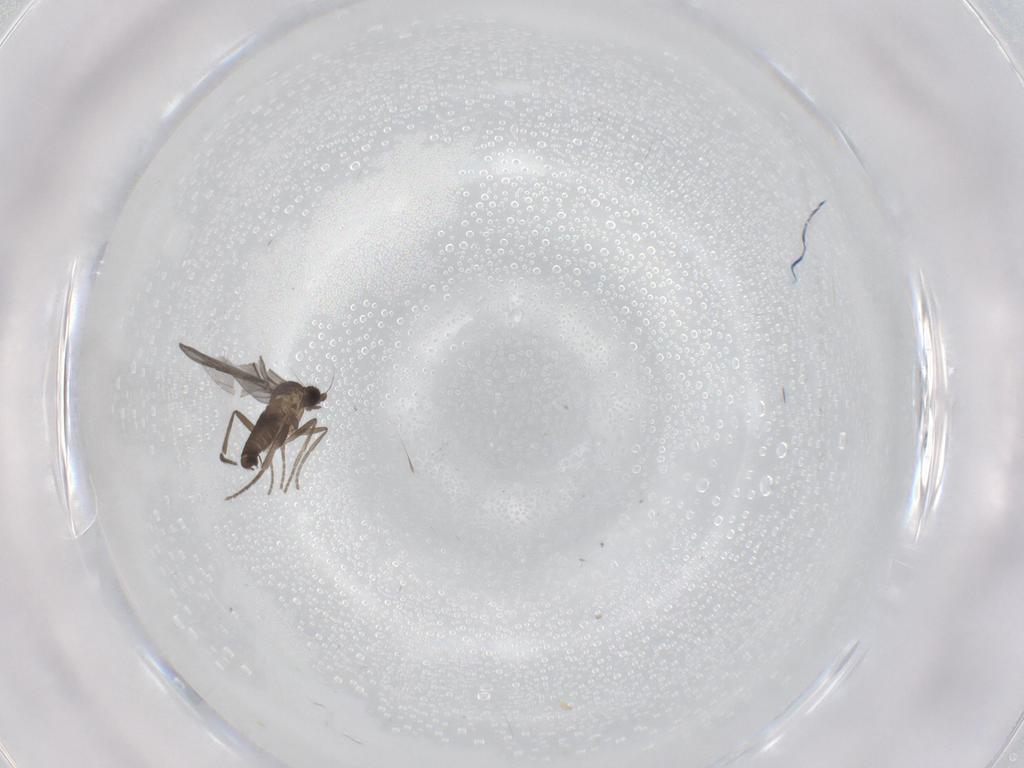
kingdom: Animalia
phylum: Arthropoda
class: Insecta
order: Diptera
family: Phoridae
